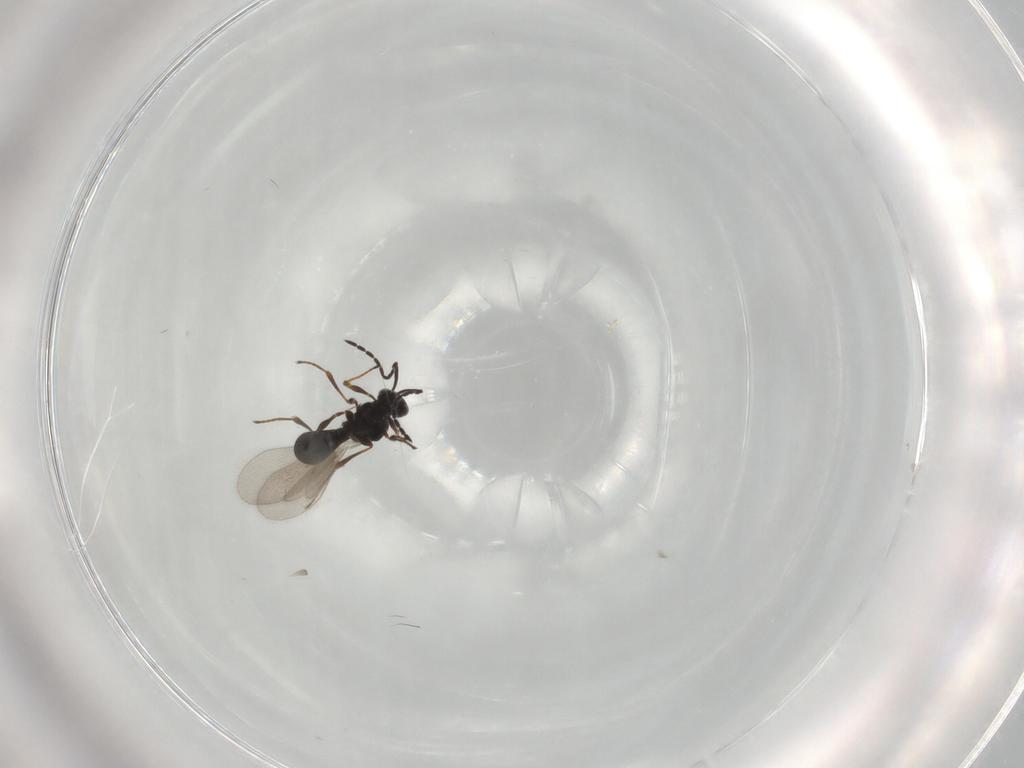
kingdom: Animalia
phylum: Arthropoda
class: Insecta
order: Hymenoptera
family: Platygastridae
